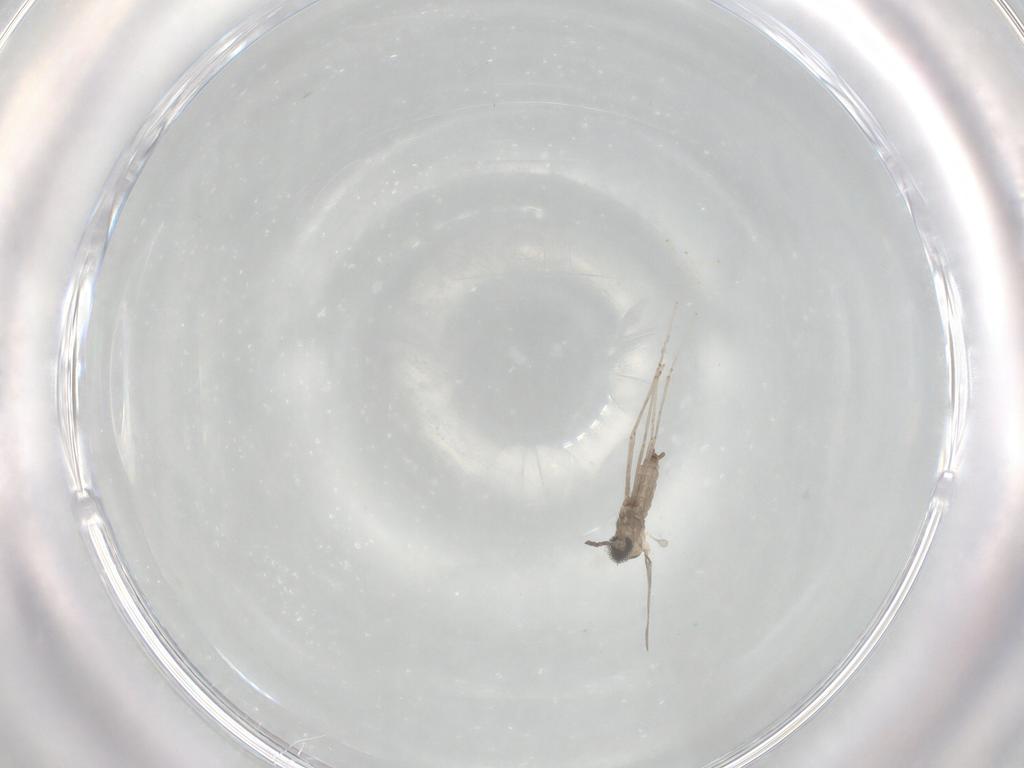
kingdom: Animalia
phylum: Arthropoda
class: Insecta
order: Diptera
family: Cecidomyiidae
